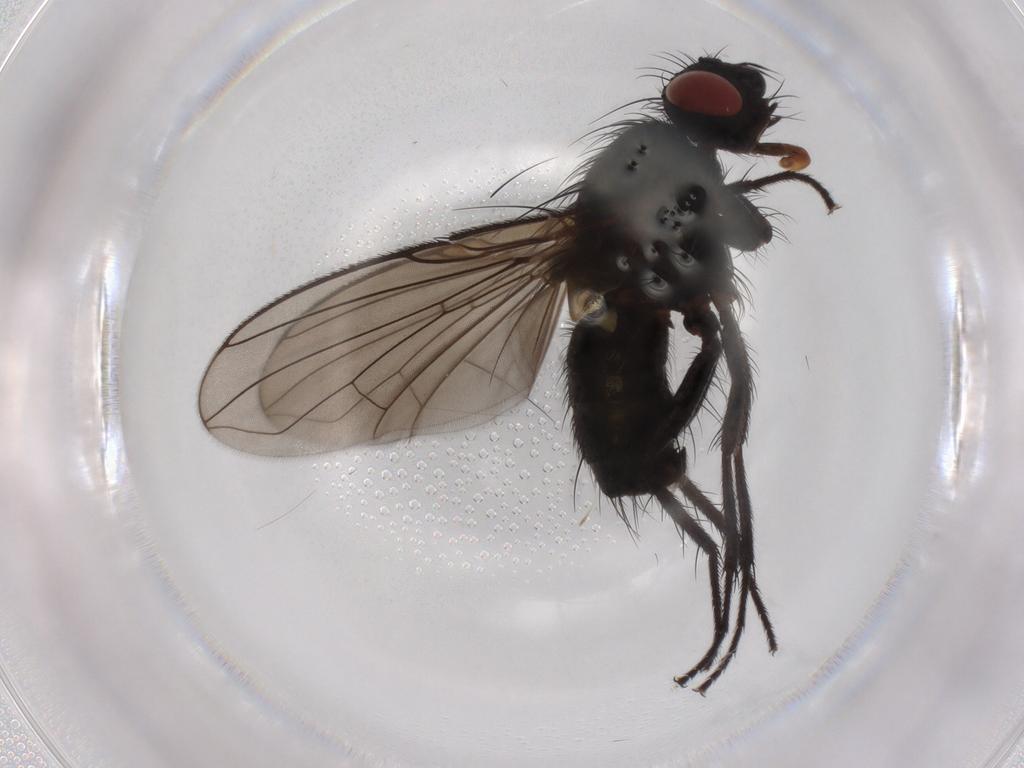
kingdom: Animalia
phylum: Arthropoda
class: Insecta
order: Diptera
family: Tachinidae
